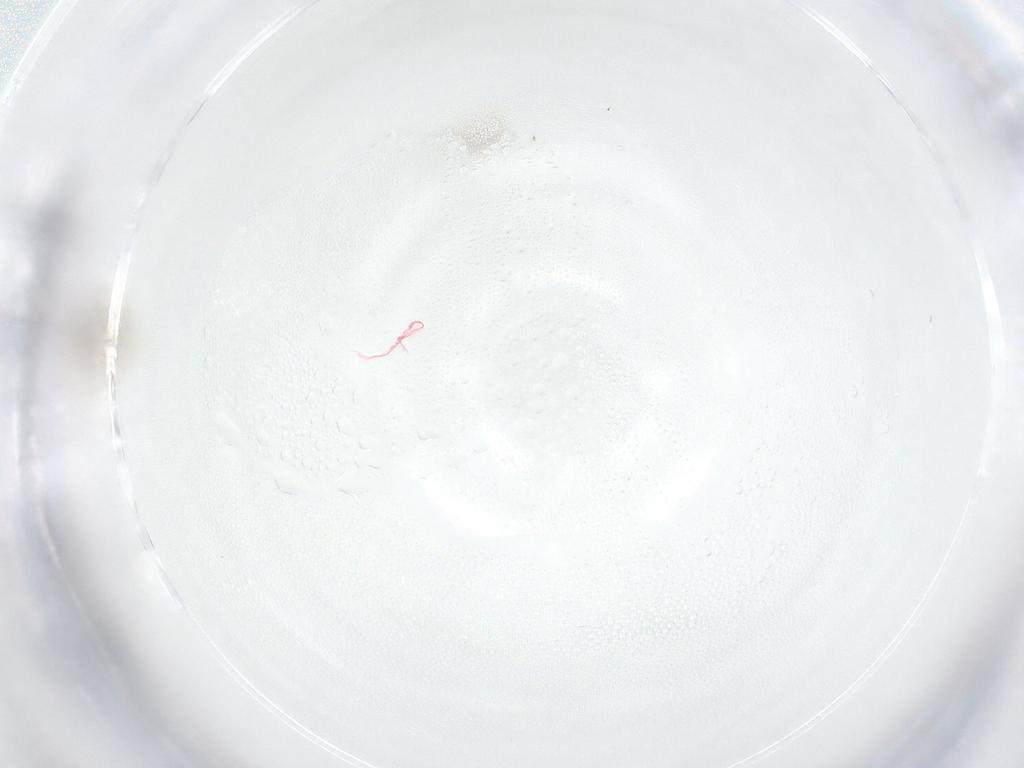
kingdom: Animalia
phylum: Arthropoda
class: Insecta
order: Diptera
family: Cecidomyiidae
